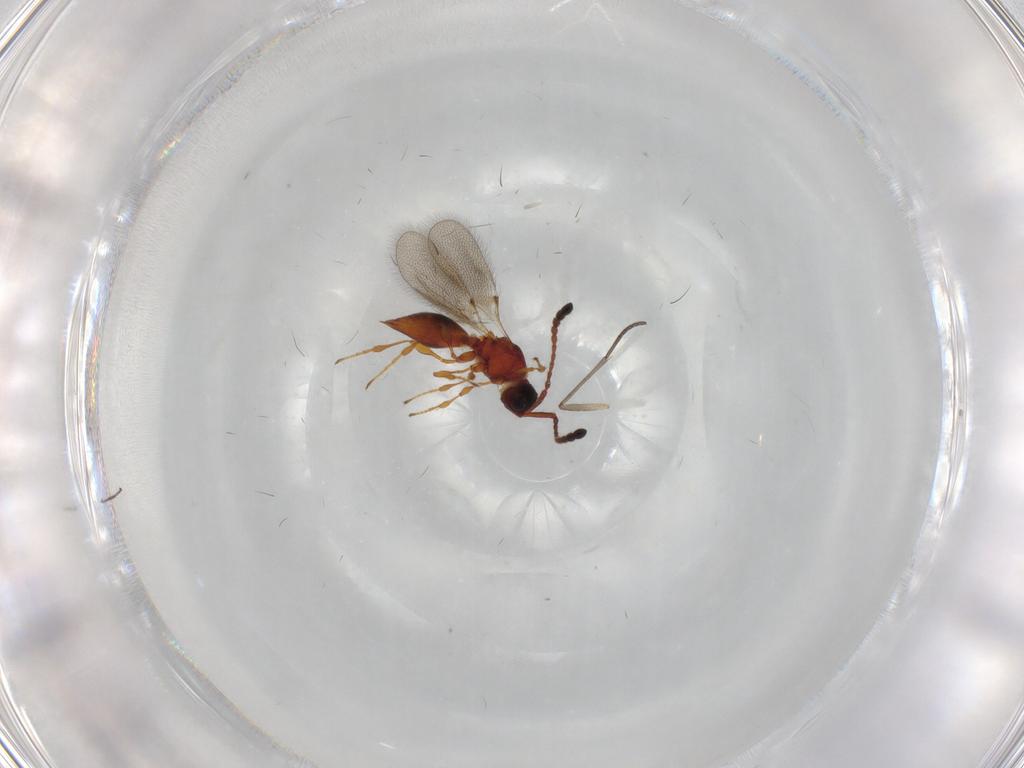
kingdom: Animalia
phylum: Arthropoda
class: Insecta
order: Hymenoptera
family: Diapriidae
